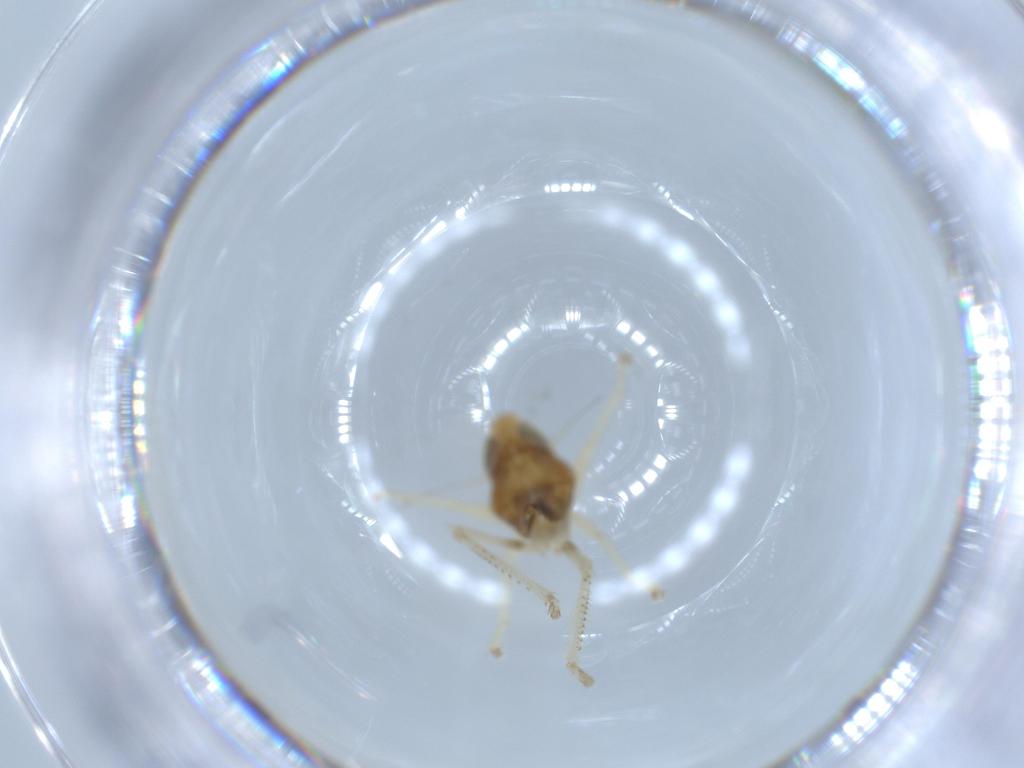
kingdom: Animalia
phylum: Arthropoda
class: Insecta
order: Hemiptera
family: Cicadellidae
